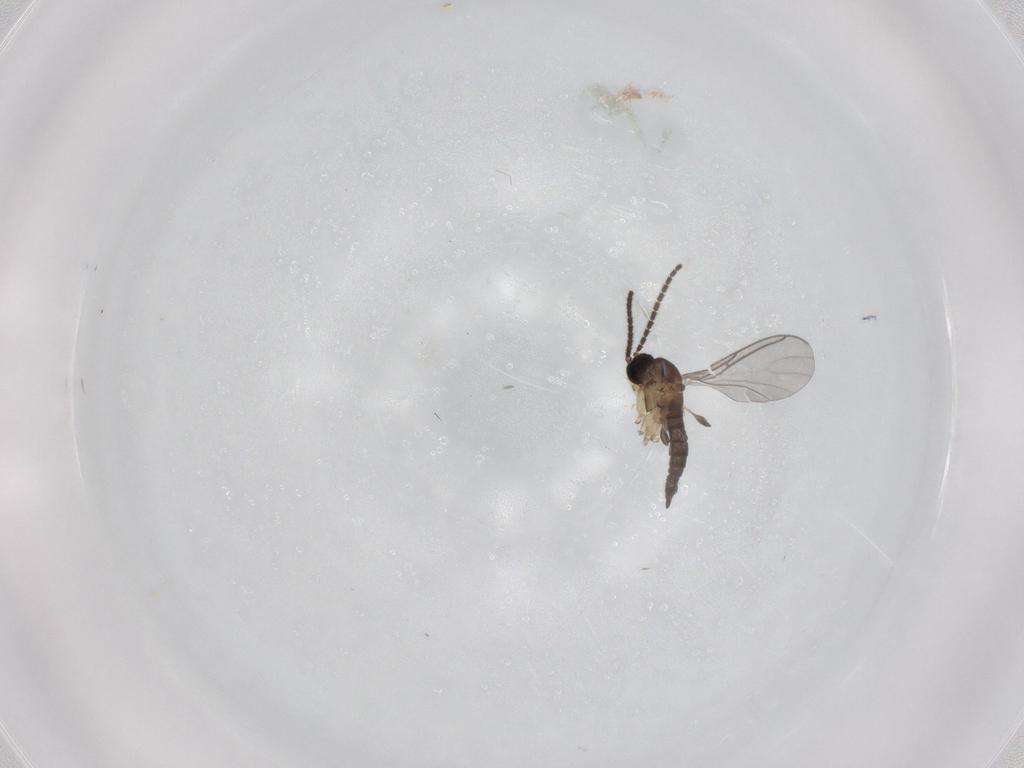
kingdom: Animalia
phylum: Arthropoda
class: Insecta
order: Diptera
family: Sciaridae
